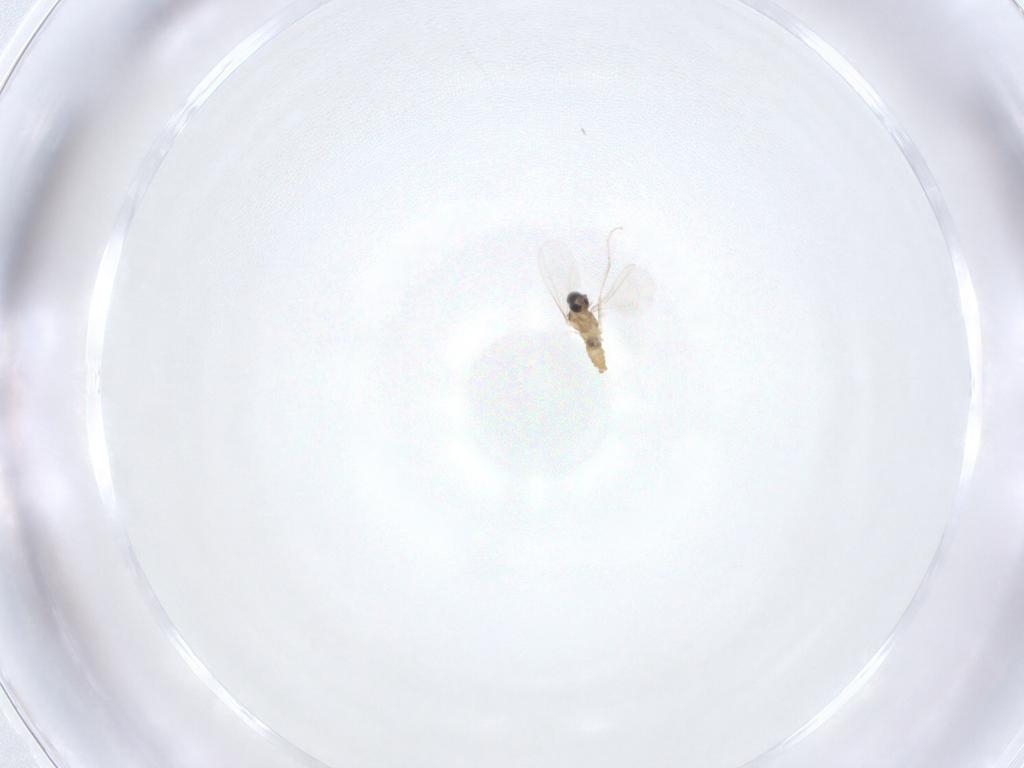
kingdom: Animalia
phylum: Arthropoda
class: Insecta
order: Diptera
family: Cecidomyiidae
